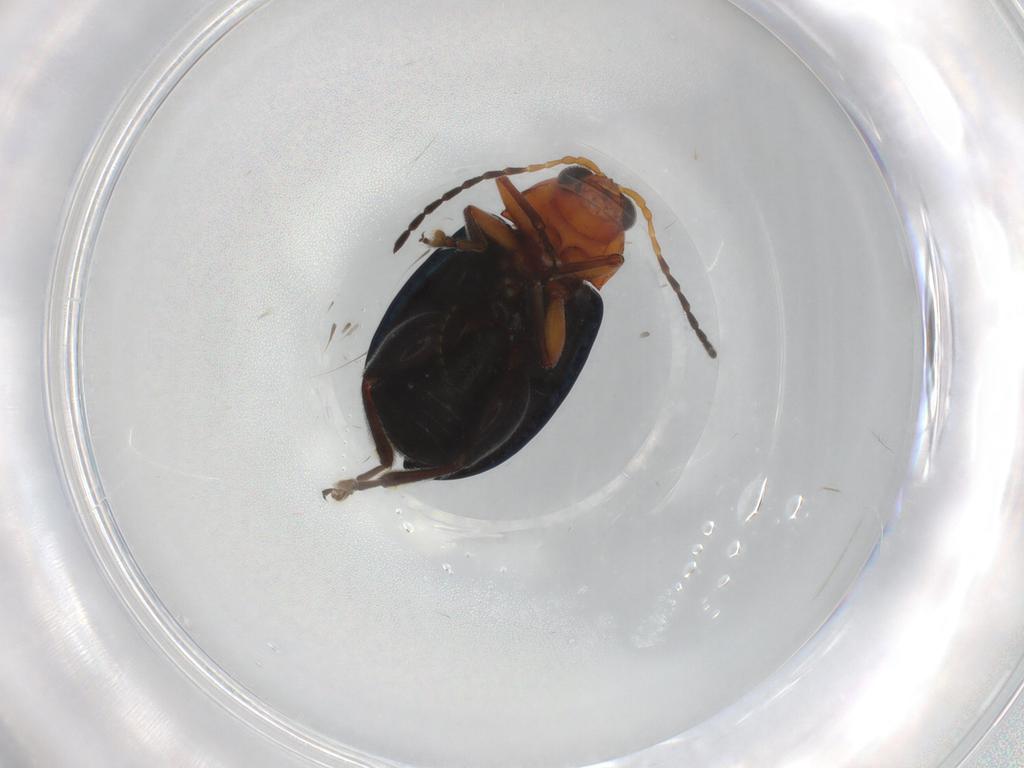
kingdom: Animalia
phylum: Arthropoda
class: Insecta
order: Coleoptera
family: Chrysomelidae
